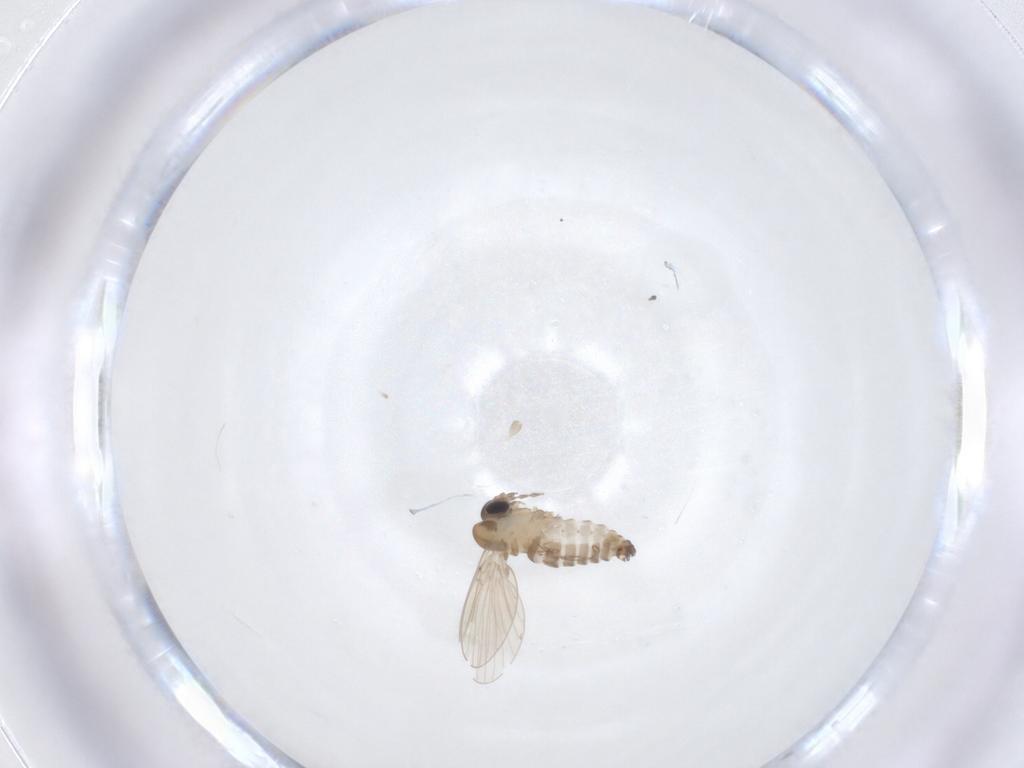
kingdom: Animalia
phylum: Arthropoda
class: Insecta
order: Diptera
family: Psychodidae
